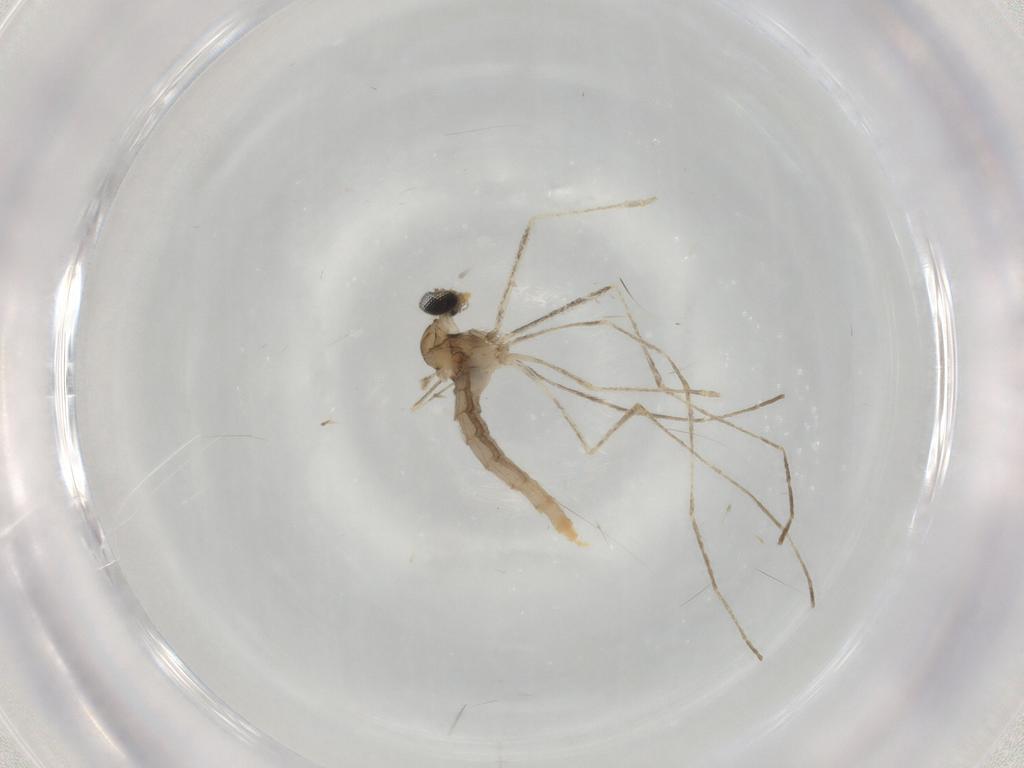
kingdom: Animalia
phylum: Arthropoda
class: Insecta
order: Diptera
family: Cecidomyiidae
